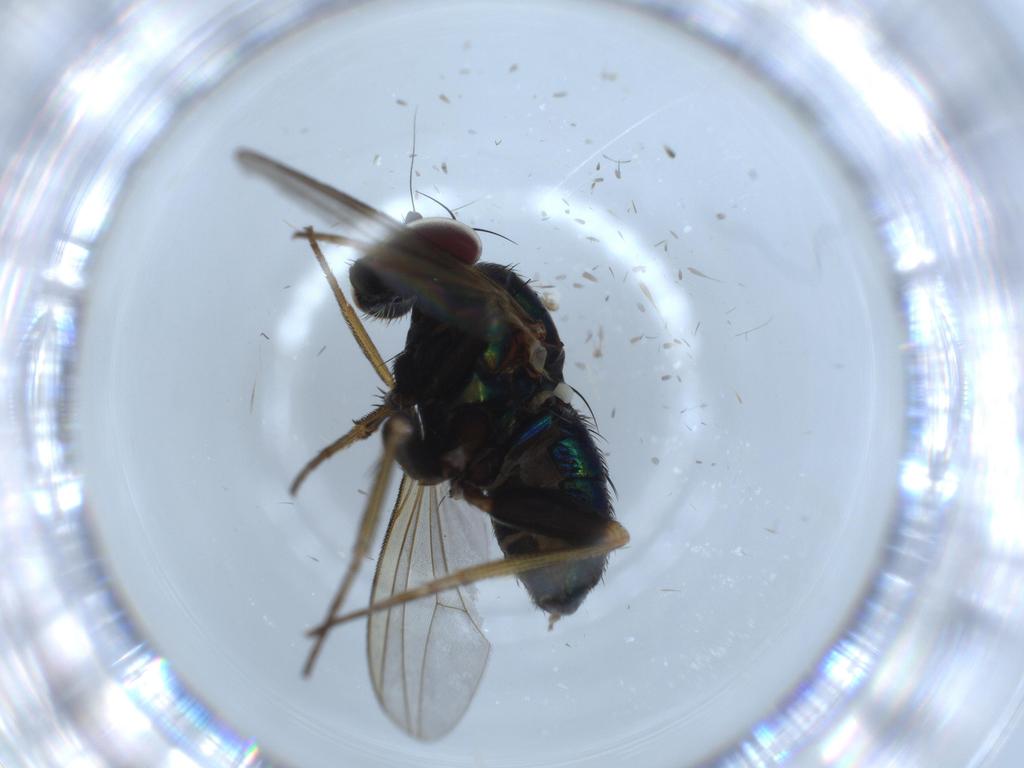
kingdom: Animalia
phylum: Arthropoda
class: Insecta
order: Diptera
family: Dolichopodidae
